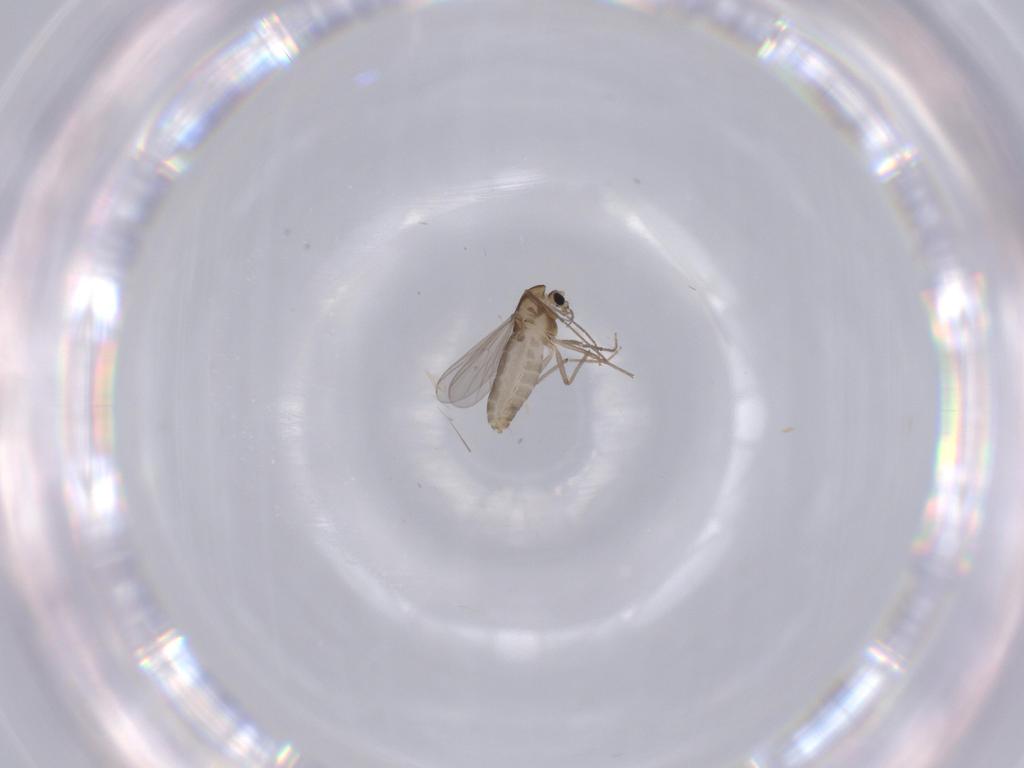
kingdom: Animalia
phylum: Arthropoda
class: Insecta
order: Diptera
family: Chironomidae
